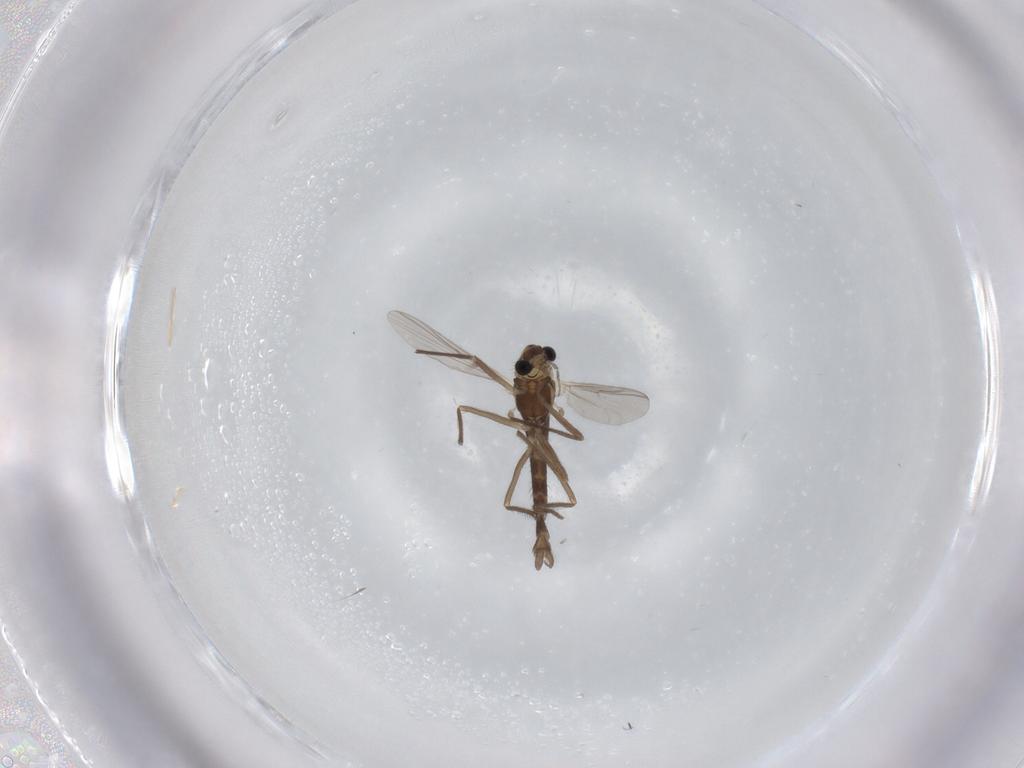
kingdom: Animalia
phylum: Arthropoda
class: Insecta
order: Diptera
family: Chironomidae
